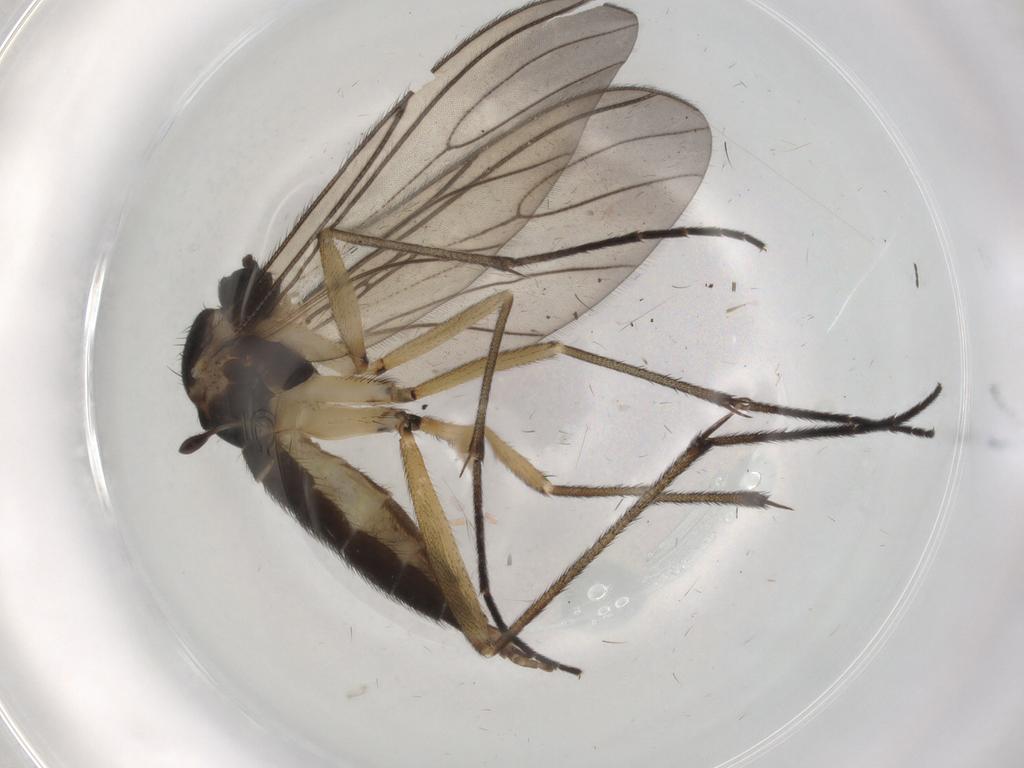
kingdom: Animalia
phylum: Arthropoda
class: Insecta
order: Diptera
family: Sciaridae
